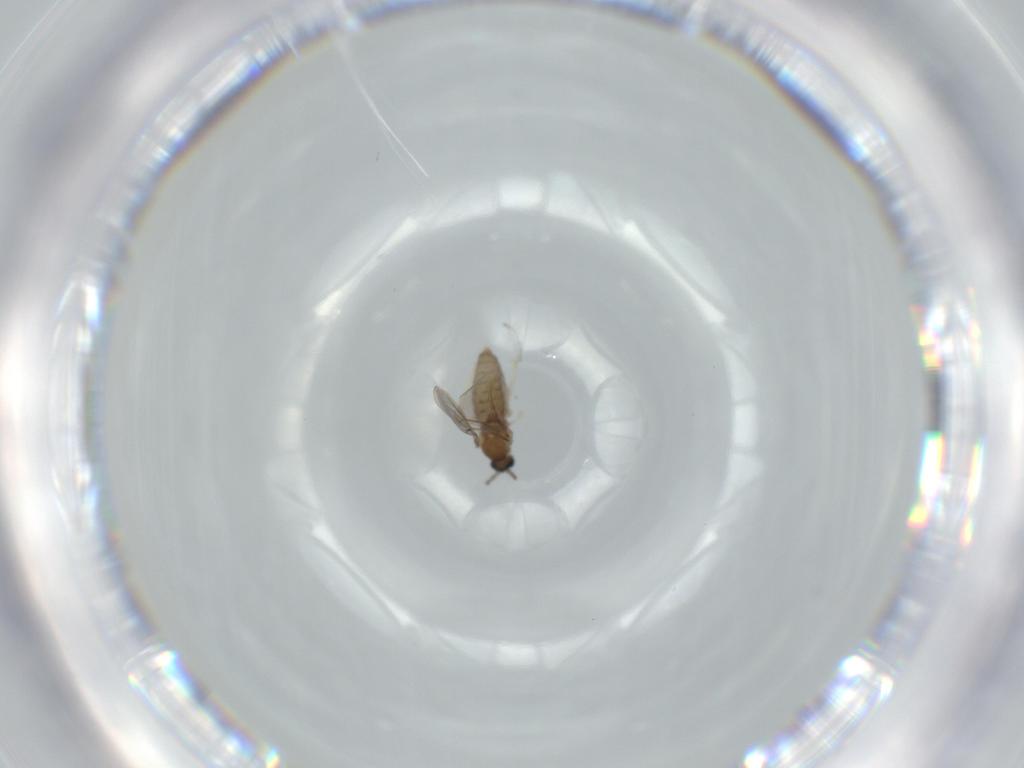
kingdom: Animalia
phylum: Arthropoda
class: Insecta
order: Diptera
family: Cecidomyiidae
